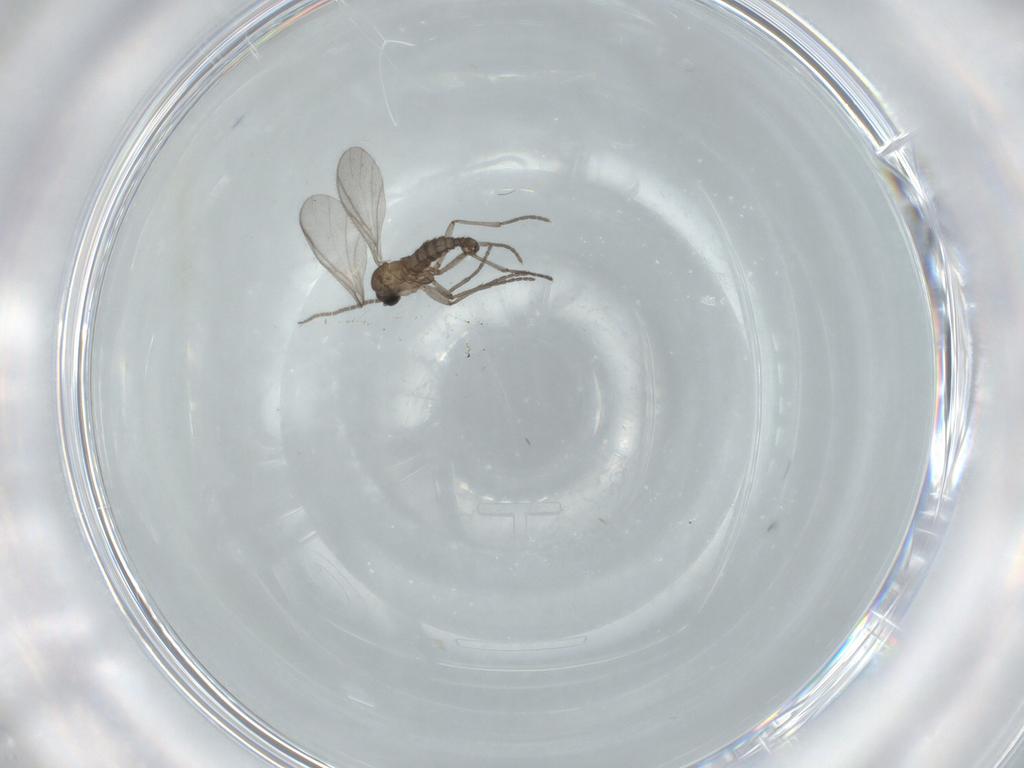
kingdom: Animalia
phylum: Arthropoda
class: Insecta
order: Diptera
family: Sciaridae
